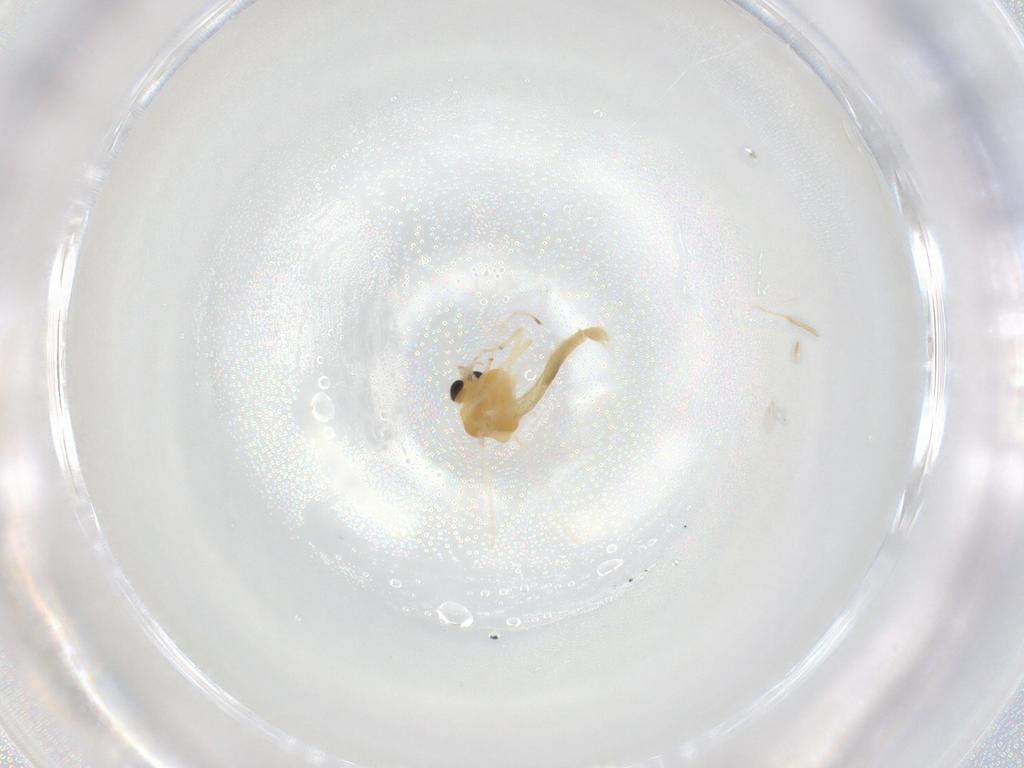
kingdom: Animalia
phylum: Arthropoda
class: Insecta
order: Diptera
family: Chironomidae
